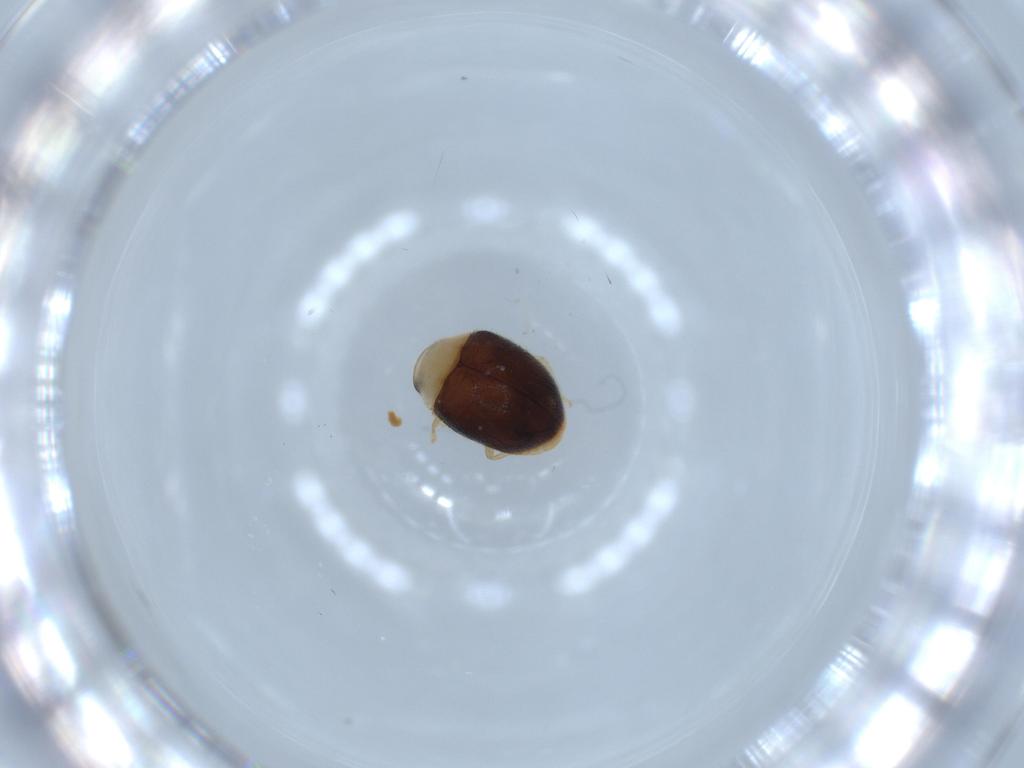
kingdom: Animalia
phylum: Arthropoda
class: Insecta
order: Coleoptera
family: Coccinellidae
